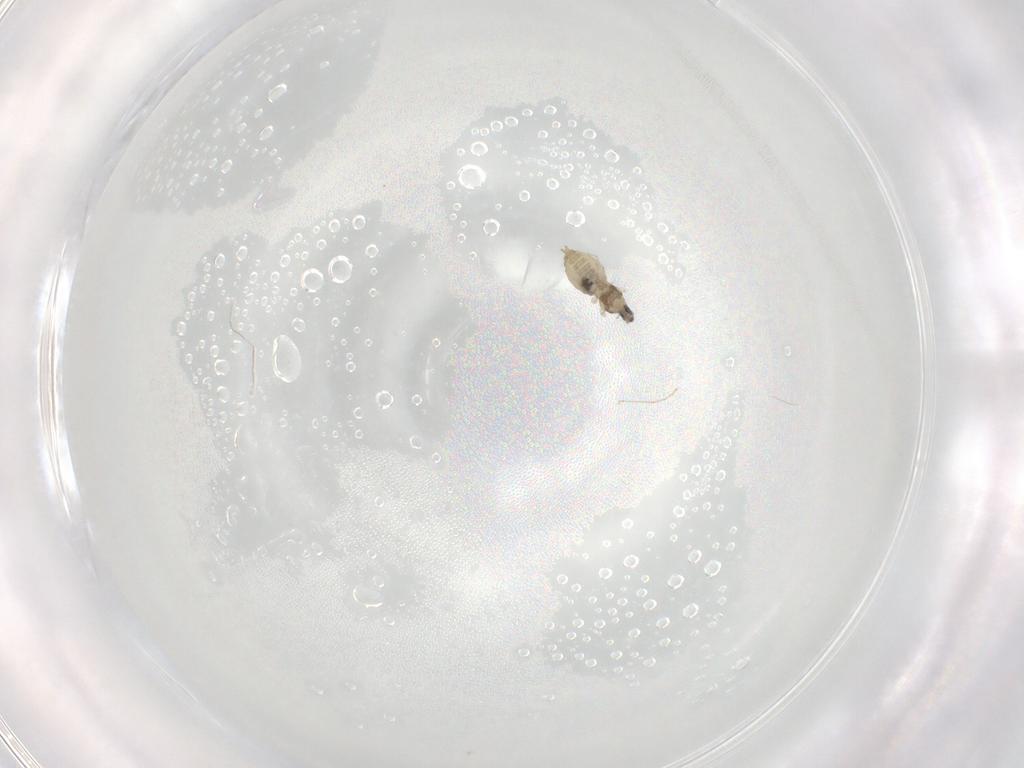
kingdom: Animalia
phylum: Arthropoda
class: Insecta
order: Diptera
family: Cecidomyiidae
